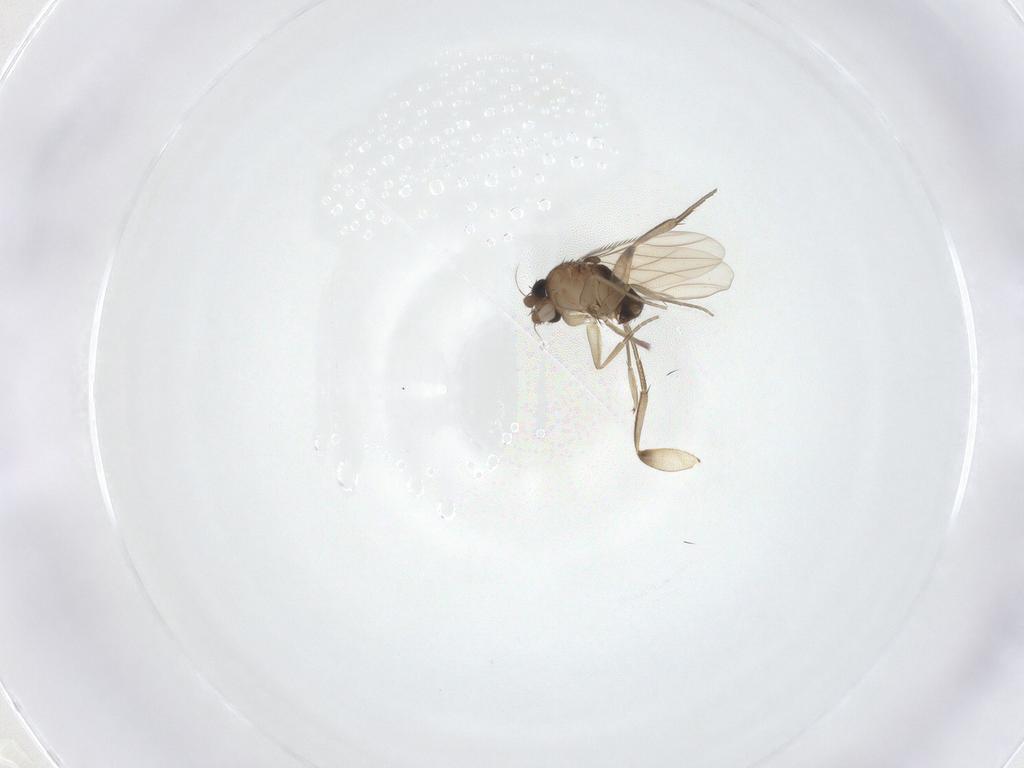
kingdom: Animalia
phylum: Arthropoda
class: Insecta
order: Diptera
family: Phoridae
